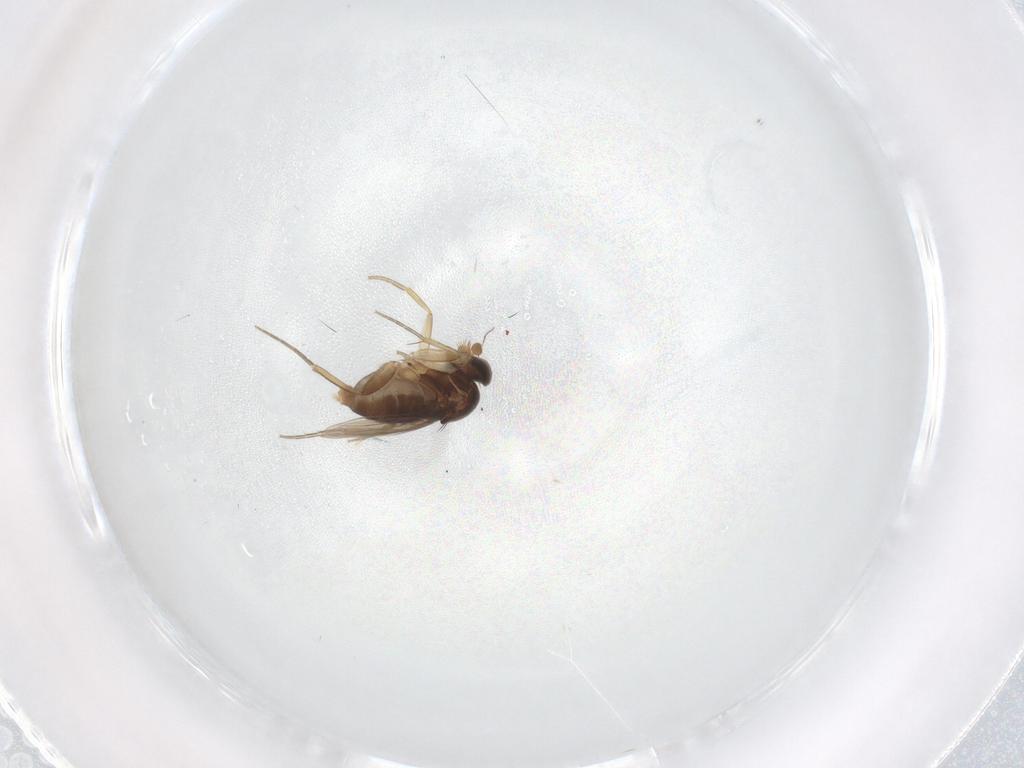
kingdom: Animalia
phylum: Arthropoda
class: Insecta
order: Diptera
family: Phoridae
